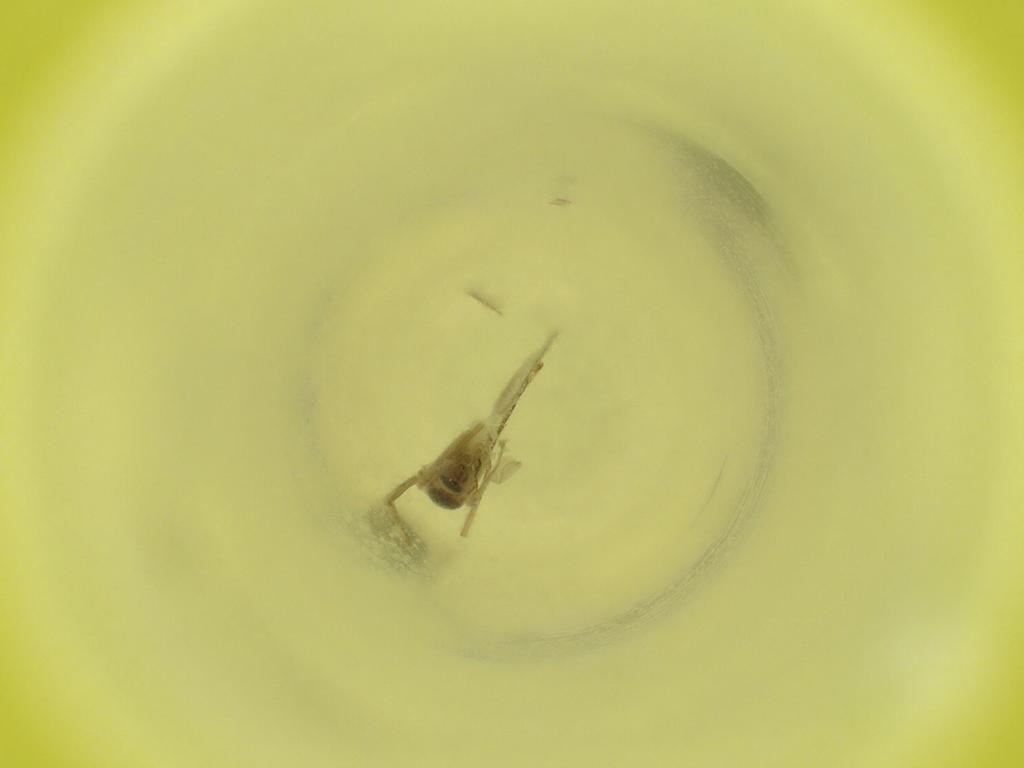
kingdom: Animalia
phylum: Arthropoda
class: Insecta
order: Diptera
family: Cecidomyiidae
